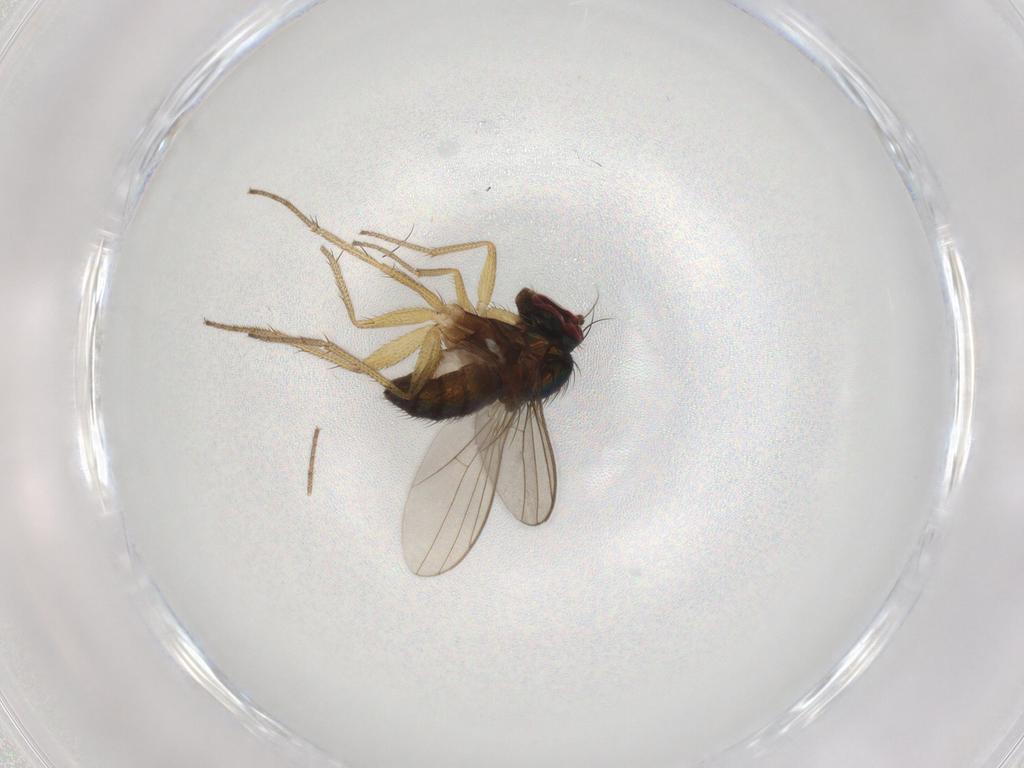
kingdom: Animalia
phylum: Arthropoda
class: Insecta
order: Diptera
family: Dolichopodidae
